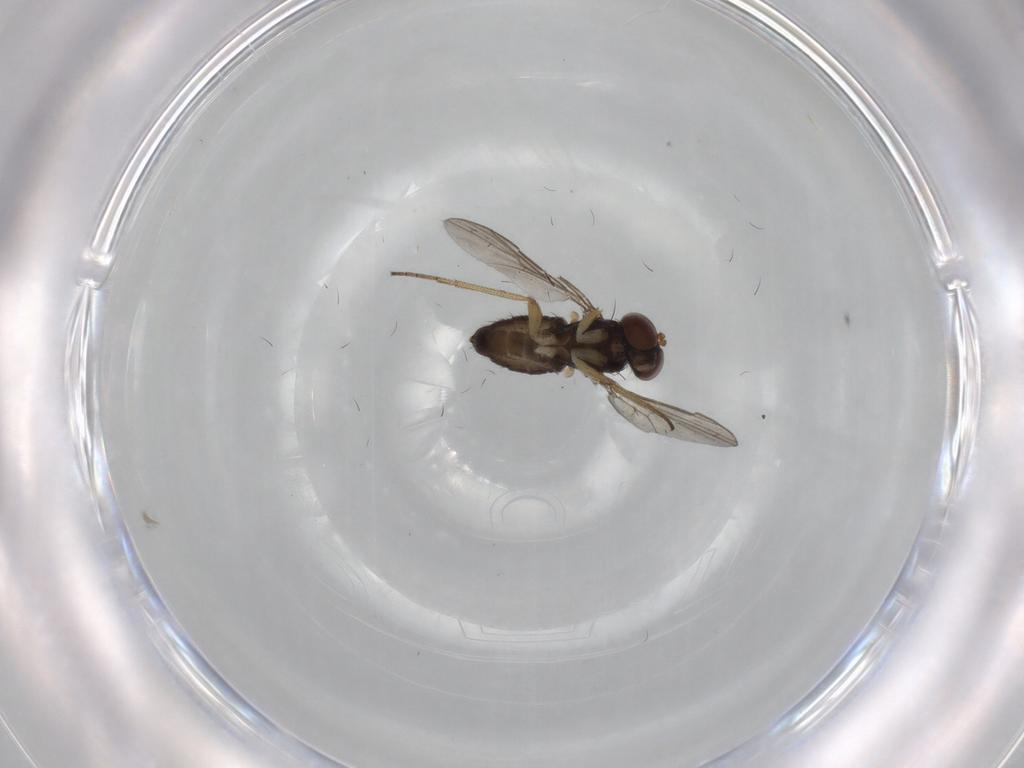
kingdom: Animalia
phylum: Arthropoda
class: Insecta
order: Diptera
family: Dolichopodidae
